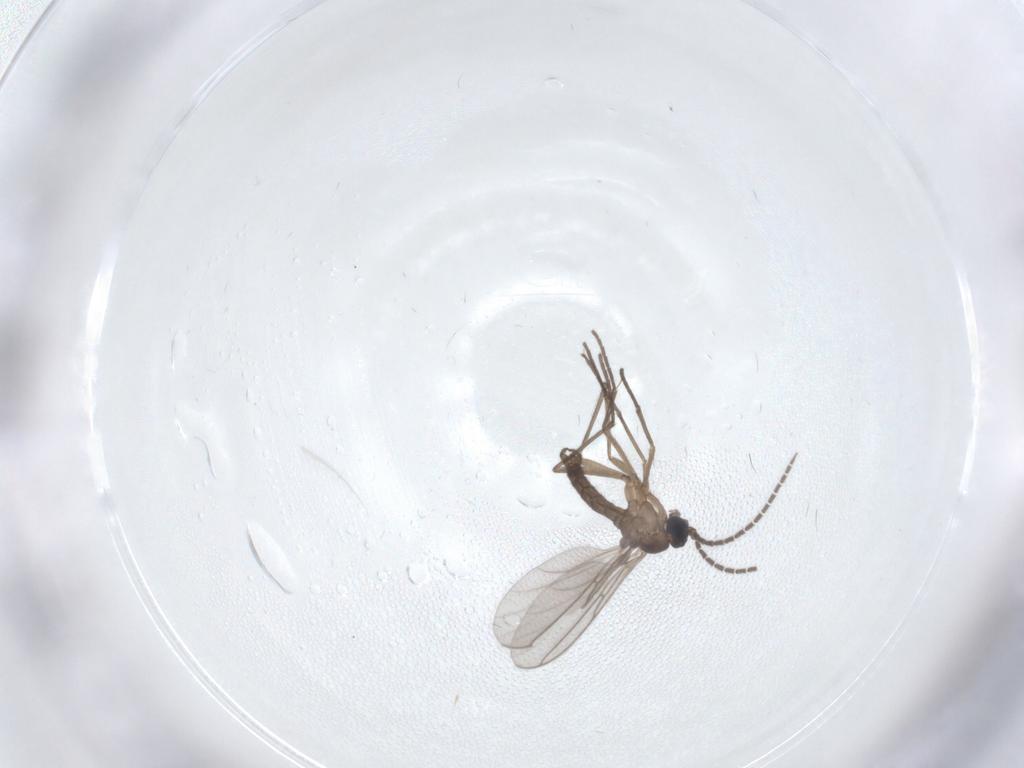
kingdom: Animalia
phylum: Arthropoda
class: Insecta
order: Diptera
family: Sciaridae
